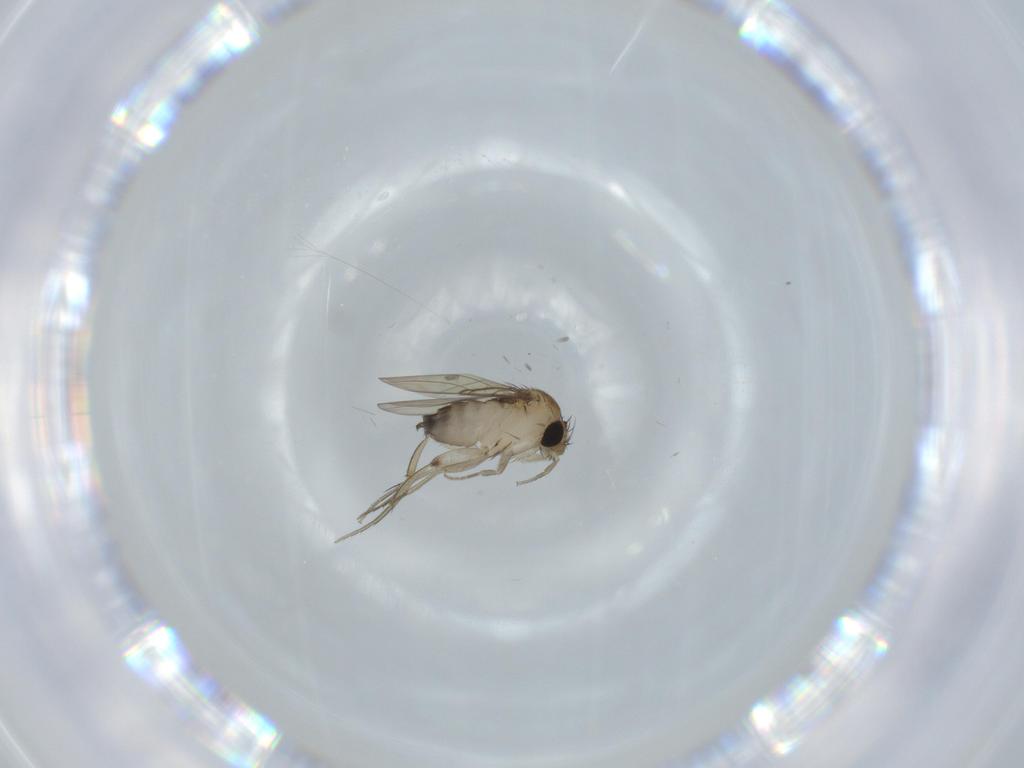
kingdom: Animalia
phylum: Arthropoda
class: Insecta
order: Diptera
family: Phoridae
